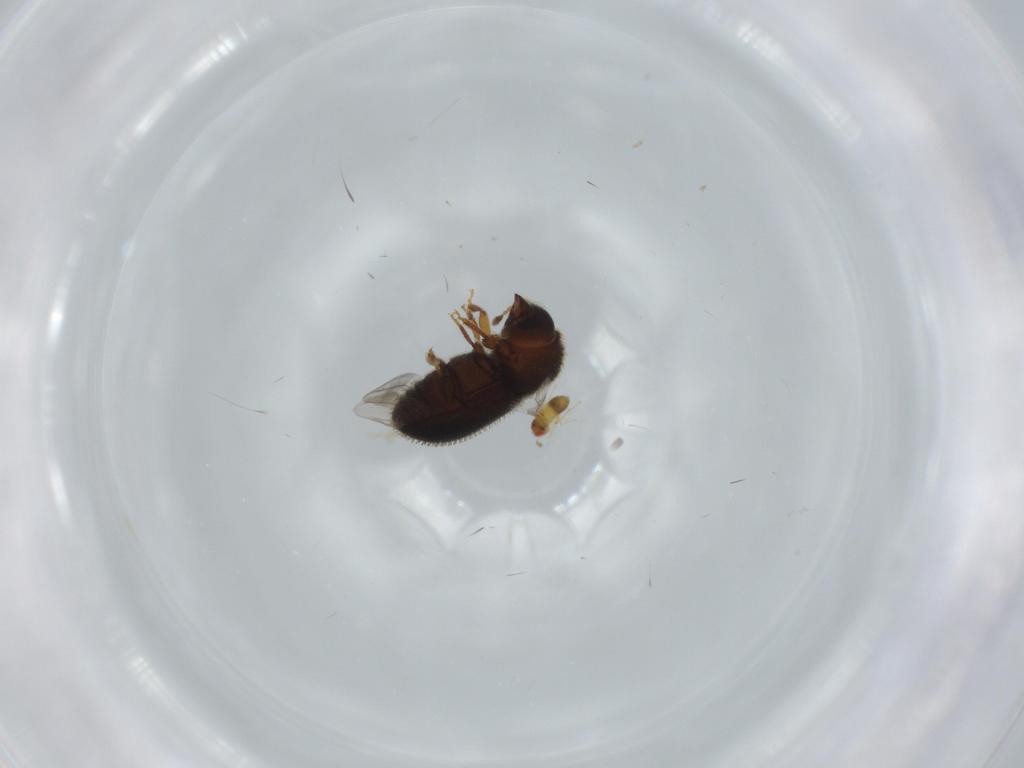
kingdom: Animalia
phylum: Arthropoda
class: Insecta
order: Hymenoptera
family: Trichogrammatidae
